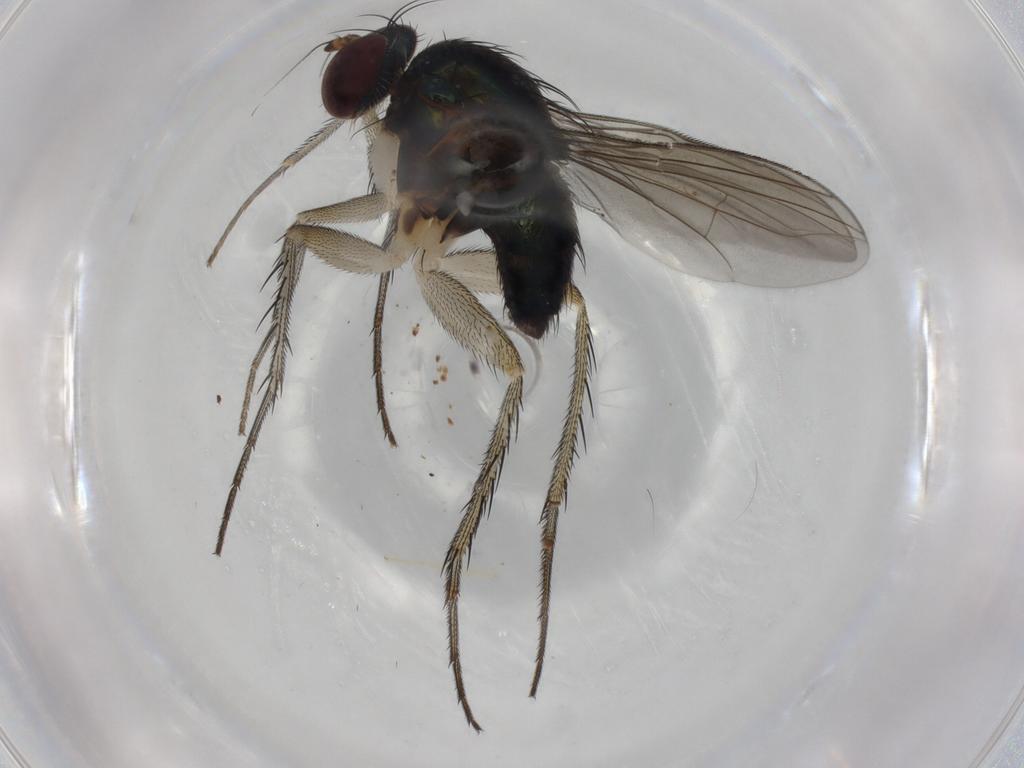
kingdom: Animalia
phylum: Arthropoda
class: Insecta
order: Diptera
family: Dolichopodidae
